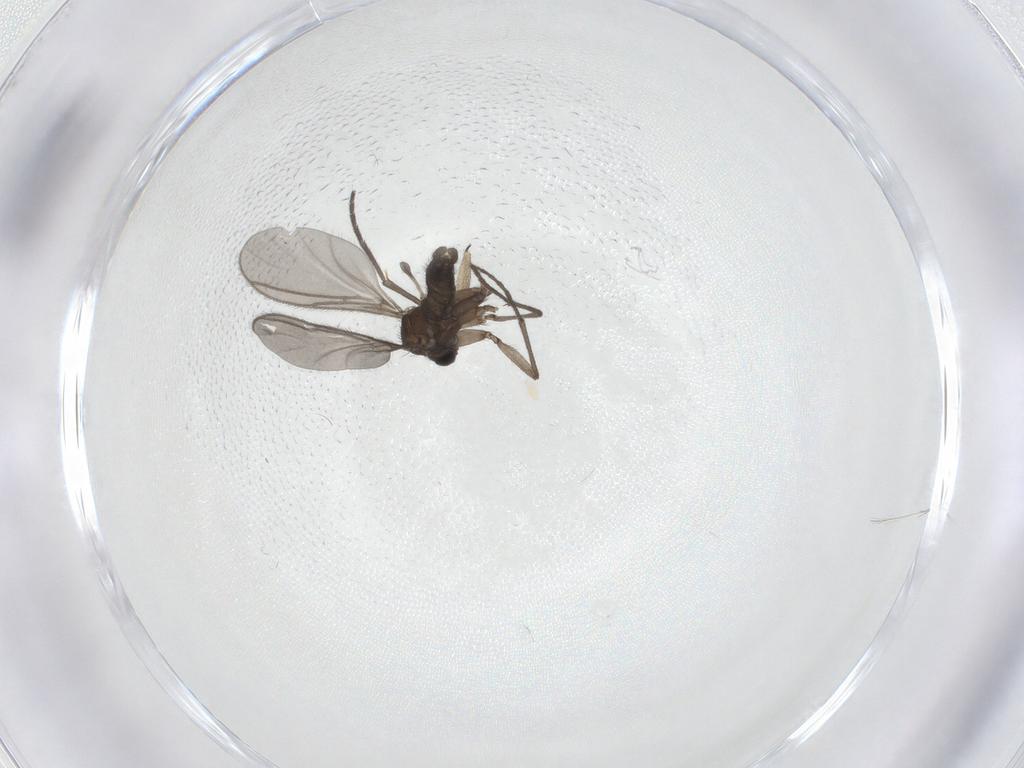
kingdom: Animalia
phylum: Arthropoda
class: Insecta
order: Diptera
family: Sciaridae
